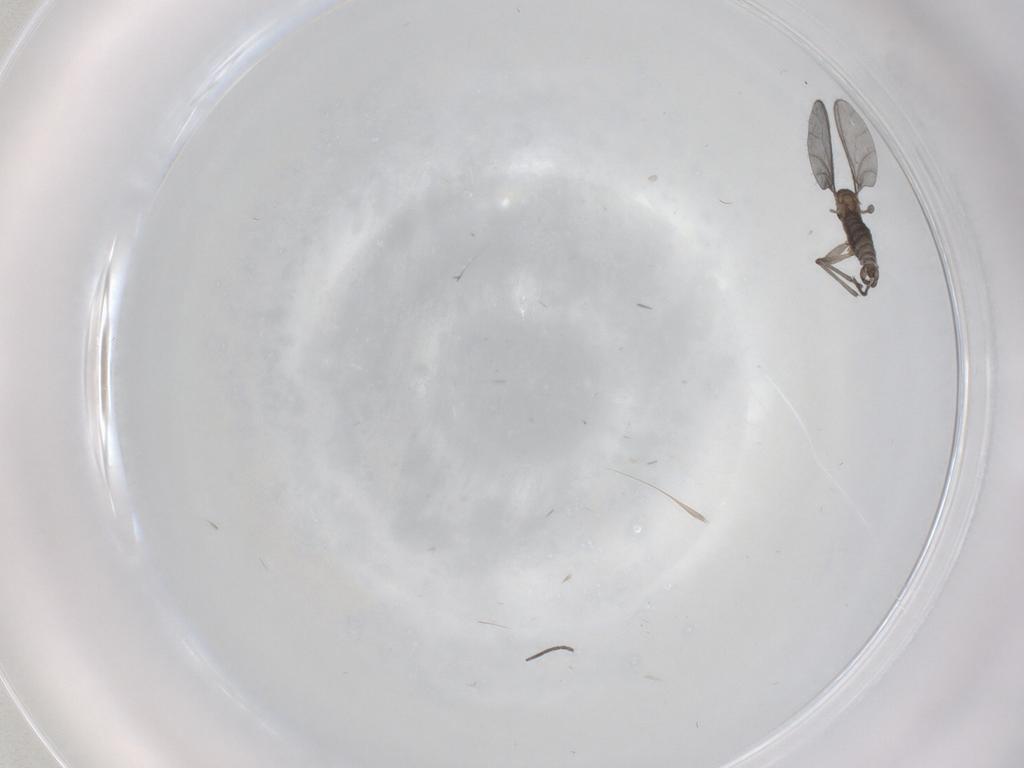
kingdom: Animalia
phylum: Arthropoda
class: Insecta
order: Diptera
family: Sciaridae
